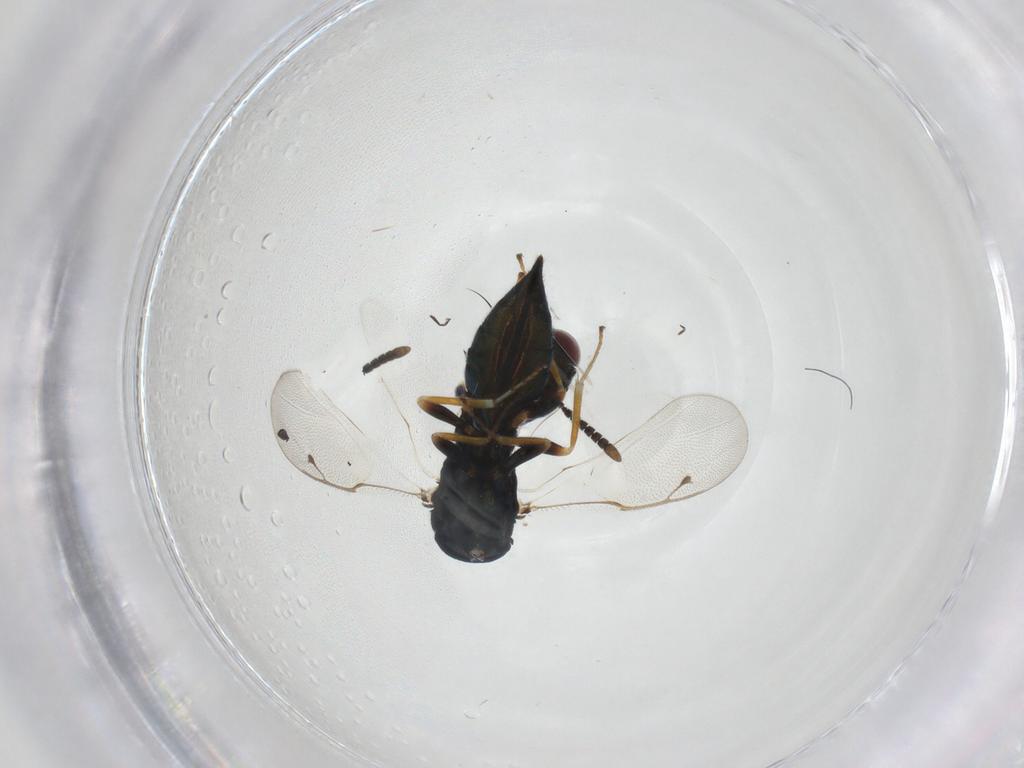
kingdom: Animalia
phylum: Arthropoda
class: Insecta
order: Hymenoptera
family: Pteromalidae
